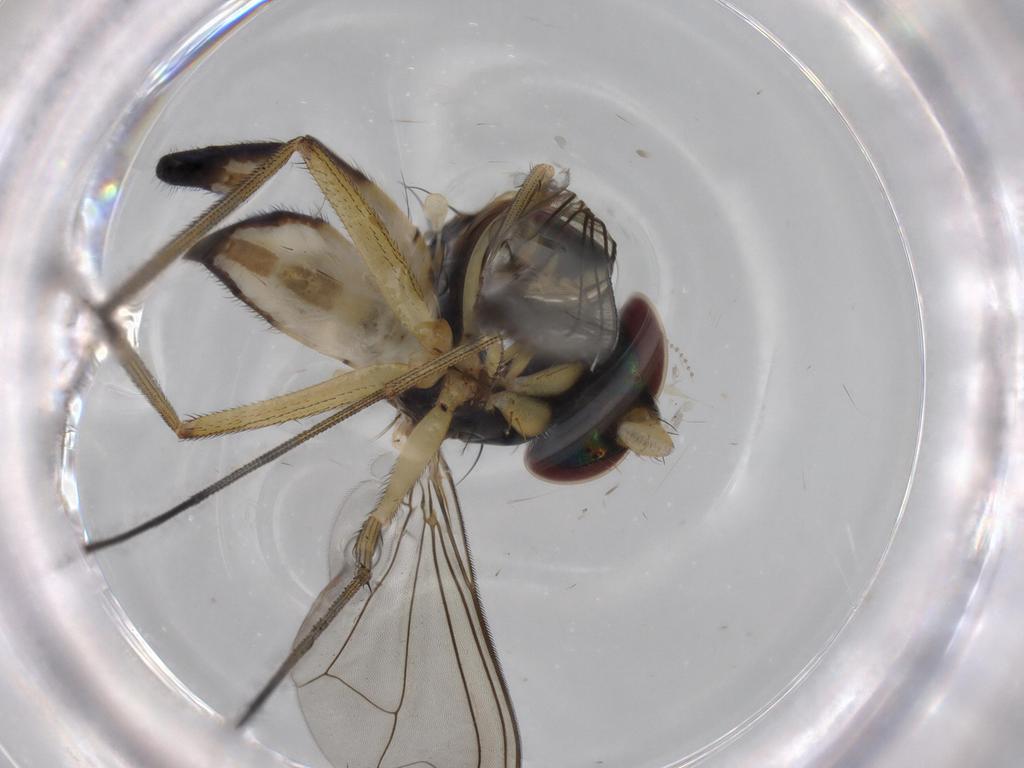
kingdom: Animalia
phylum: Arthropoda
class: Insecta
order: Diptera
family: Dolichopodidae
